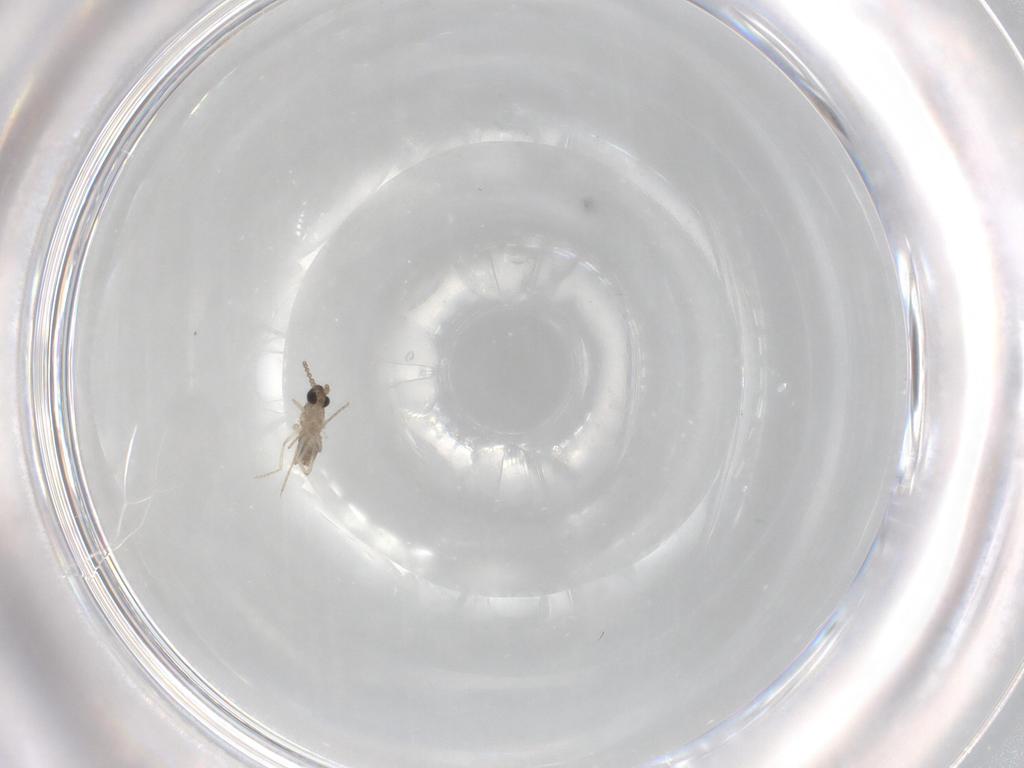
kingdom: Animalia
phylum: Arthropoda
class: Insecta
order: Diptera
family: Cecidomyiidae
